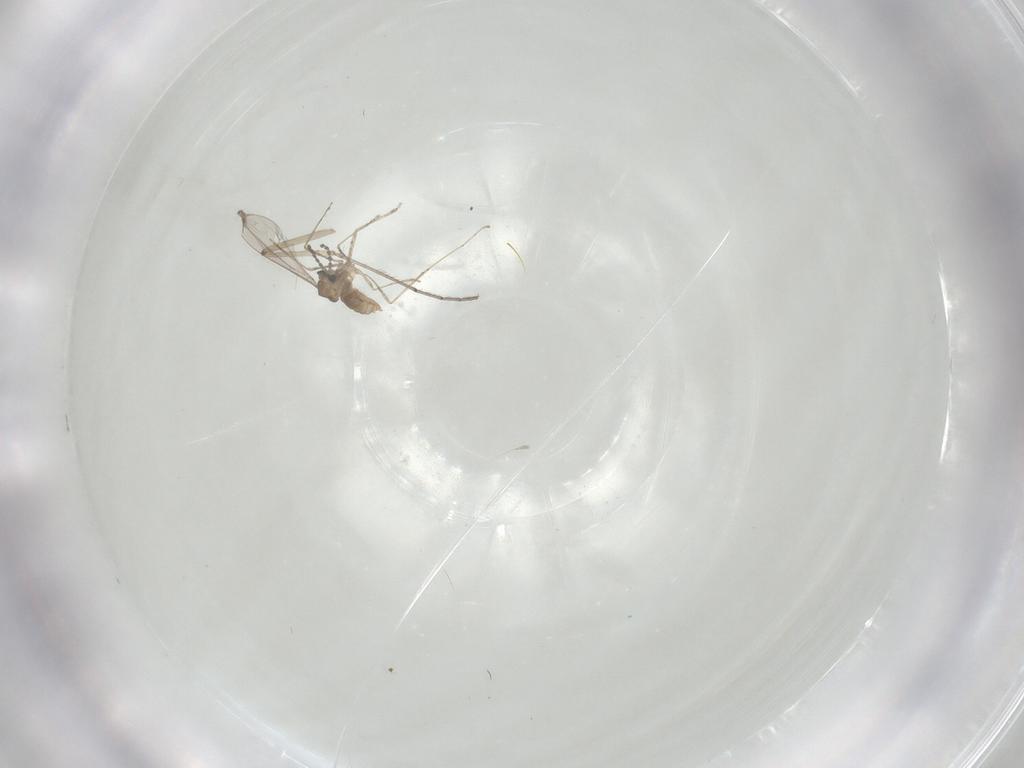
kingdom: Animalia
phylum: Arthropoda
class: Insecta
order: Diptera
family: Cecidomyiidae
